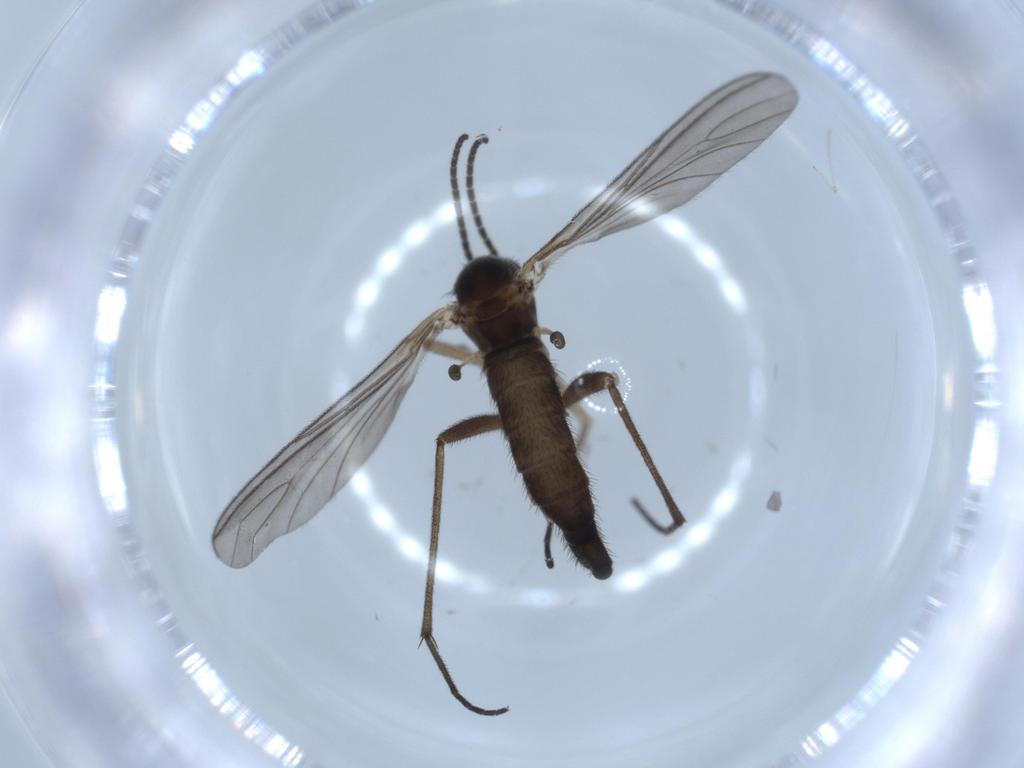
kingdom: Animalia
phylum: Arthropoda
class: Insecta
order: Diptera
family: Sciaridae
